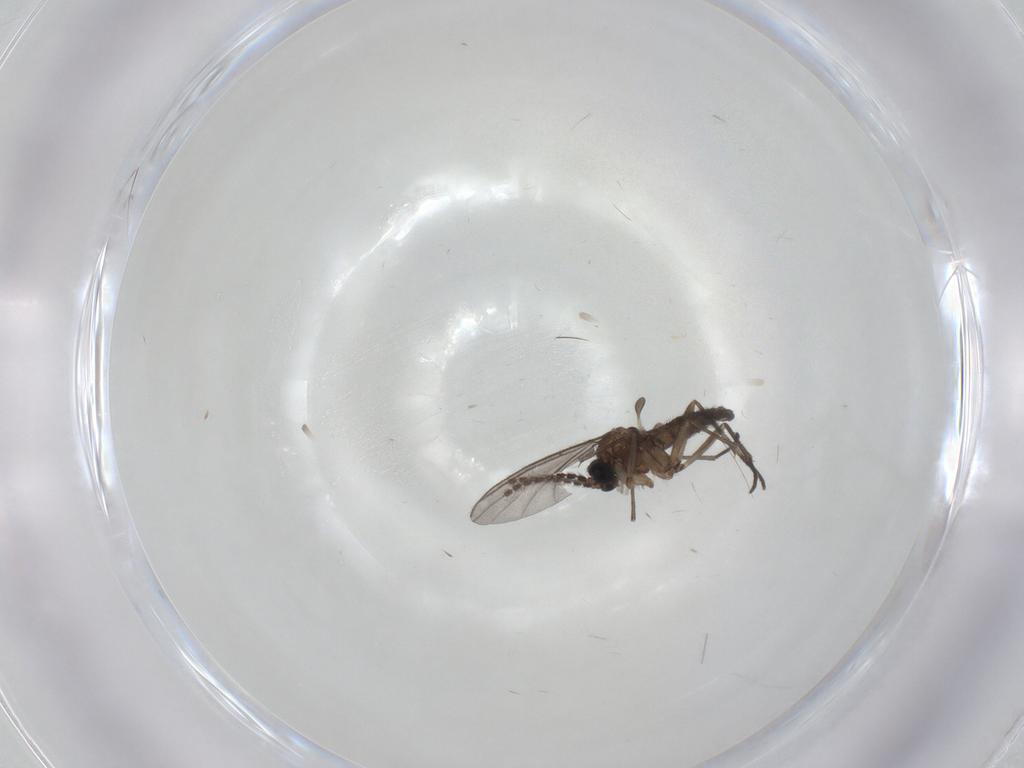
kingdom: Animalia
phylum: Arthropoda
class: Insecta
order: Diptera
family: Sciaridae
